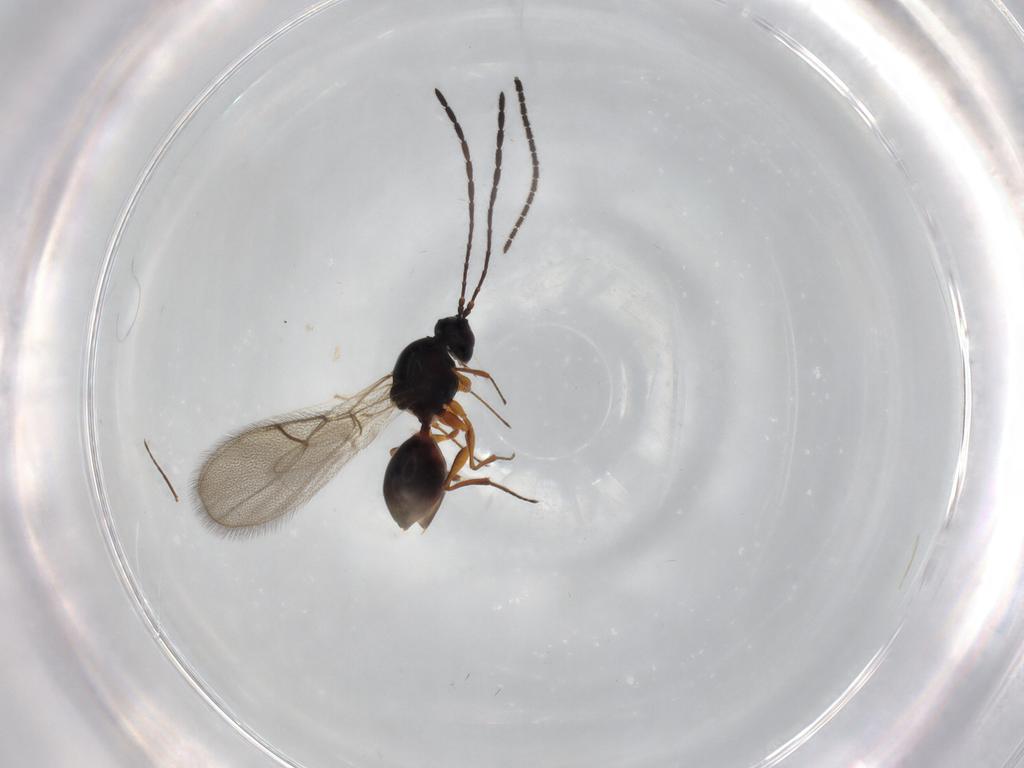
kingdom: Animalia
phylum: Arthropoda
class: Insecta
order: Hymenoptera
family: Figitidae
